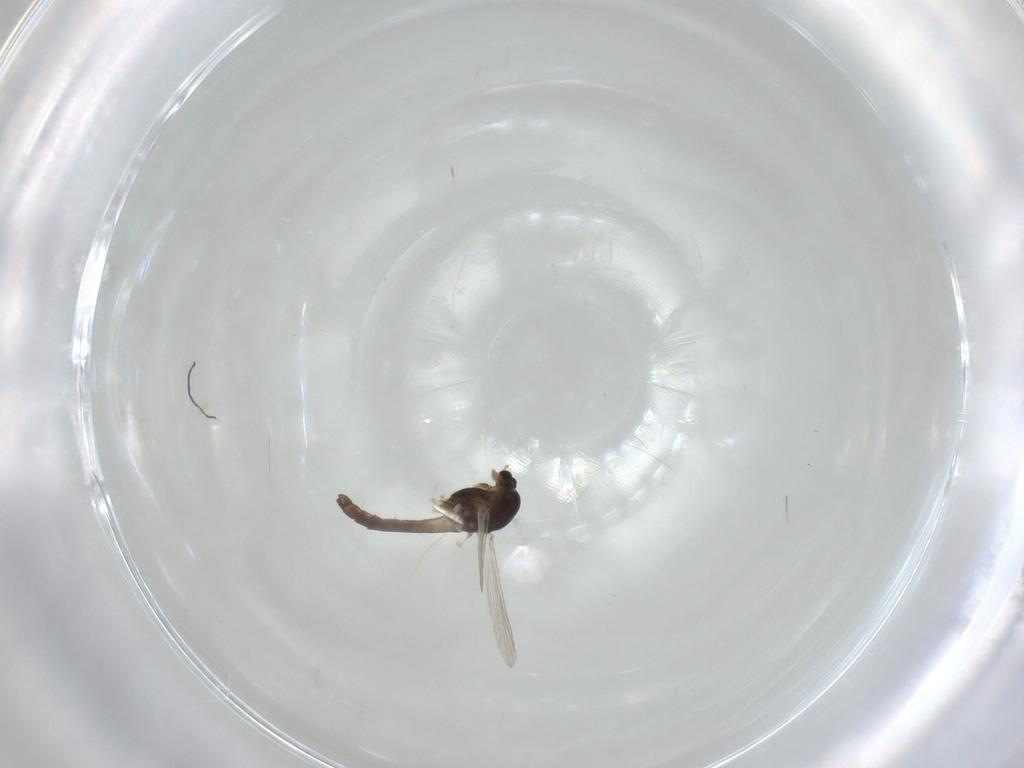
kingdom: Animalia
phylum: Arthropoda
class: Insecta
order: Diptera
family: Chironomidae
